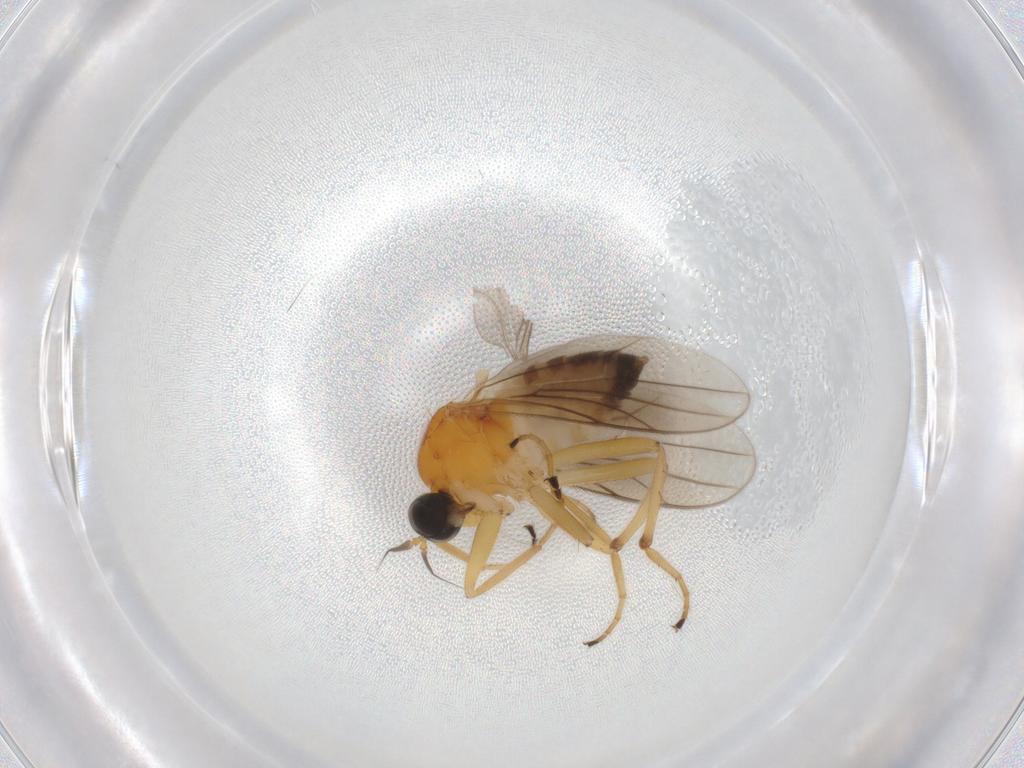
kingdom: Animalia
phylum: Arthropoda
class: Insecta
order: Diptera
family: Hybotidae
